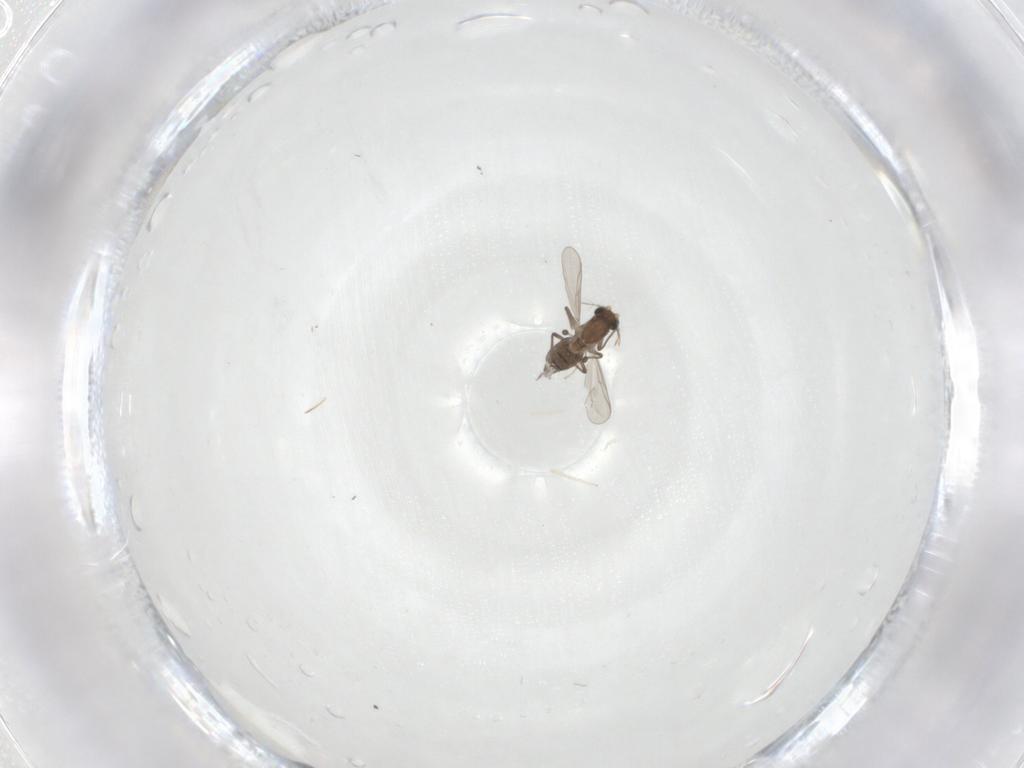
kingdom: Animalia
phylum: Arthropoda
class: Insecta
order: Diptera
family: Chironomidae
